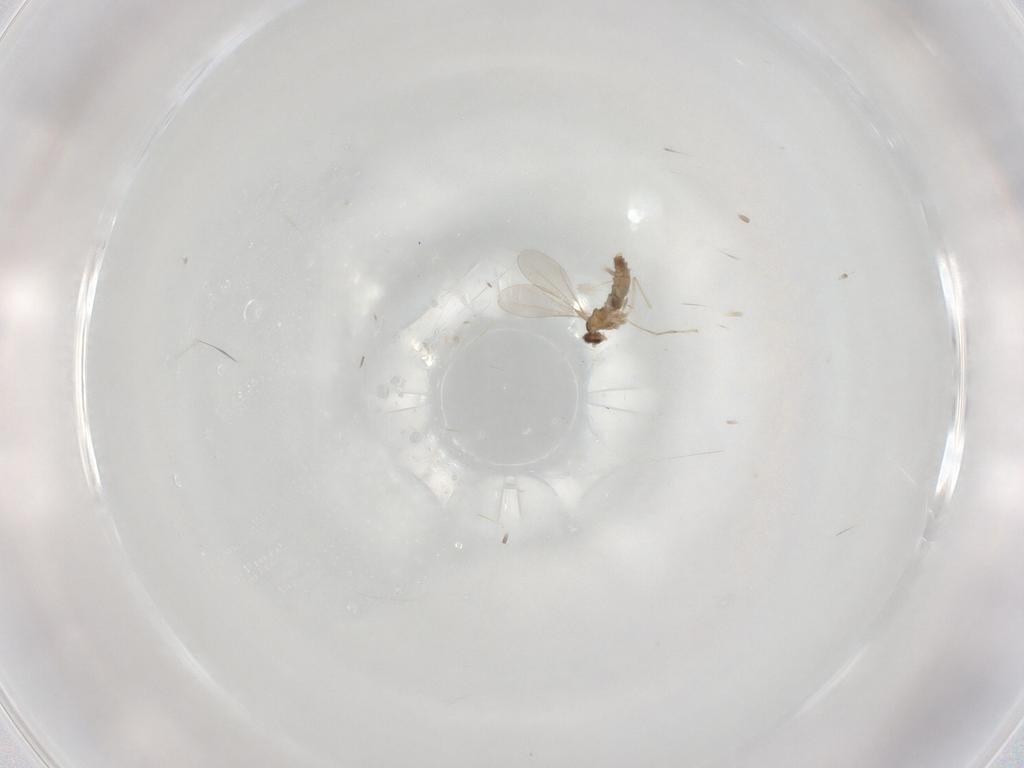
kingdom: Animalia
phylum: Arthropoda
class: Insecta
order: Diptera
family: Cecidomyiidae
